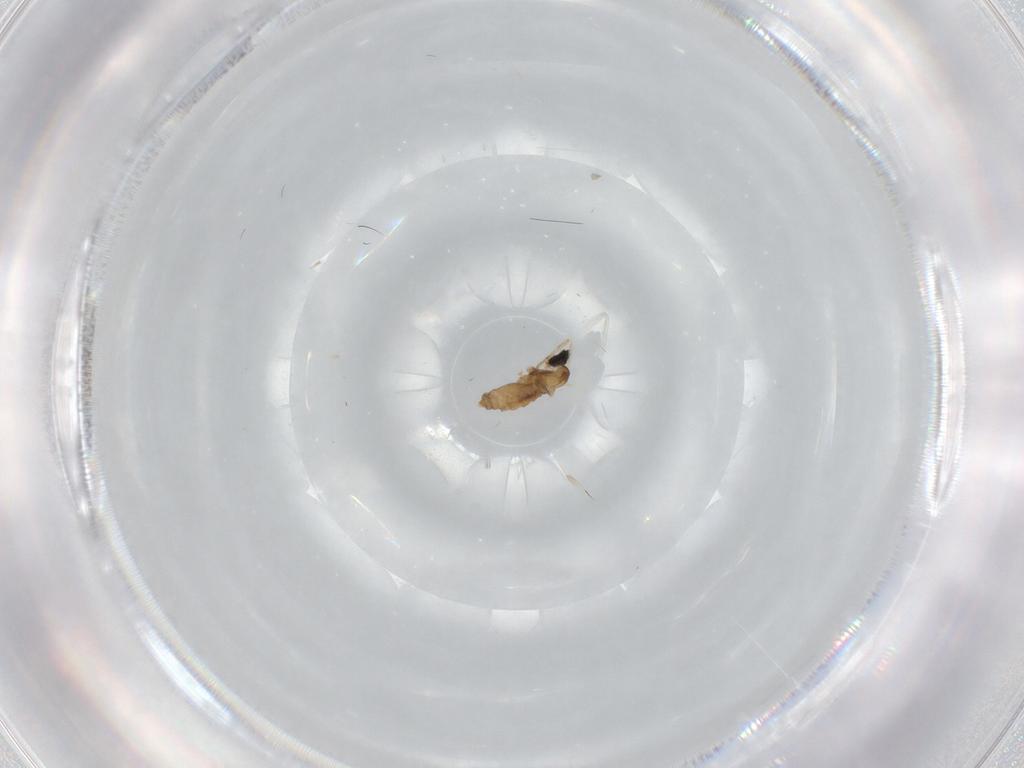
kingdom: Animalia
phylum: Arthropoda
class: Insecta
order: Diptera
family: Cecidomyiidae
